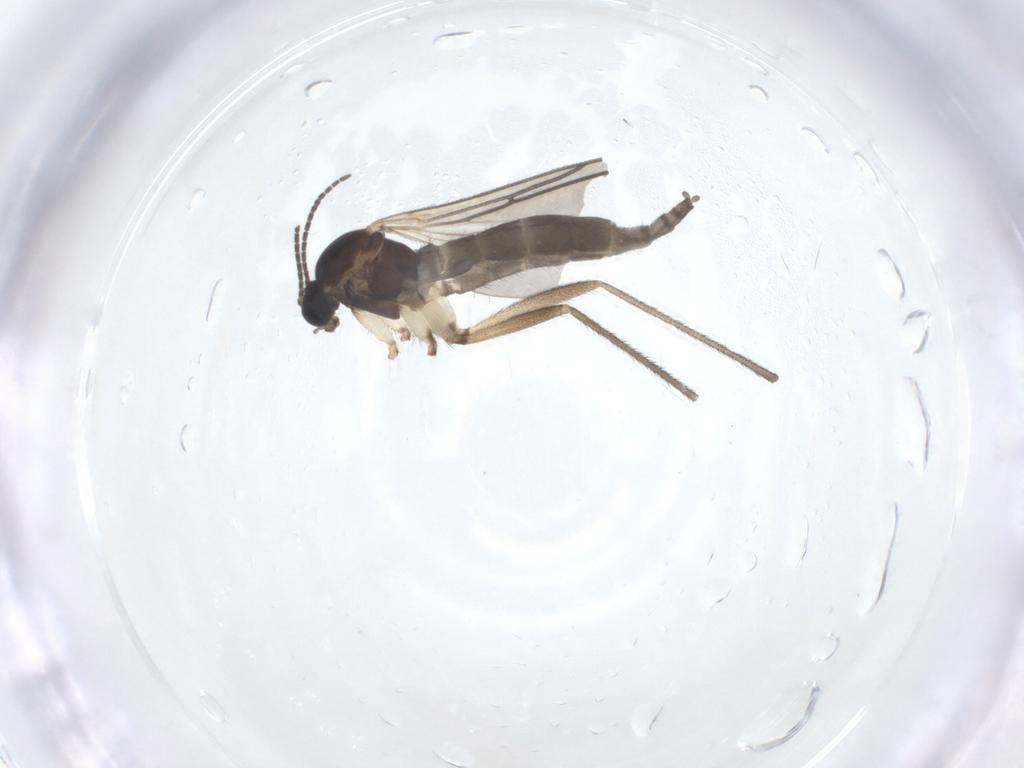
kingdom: Animalia
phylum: Arthropoda
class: Insecta
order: Diptera
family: Sciaridae
